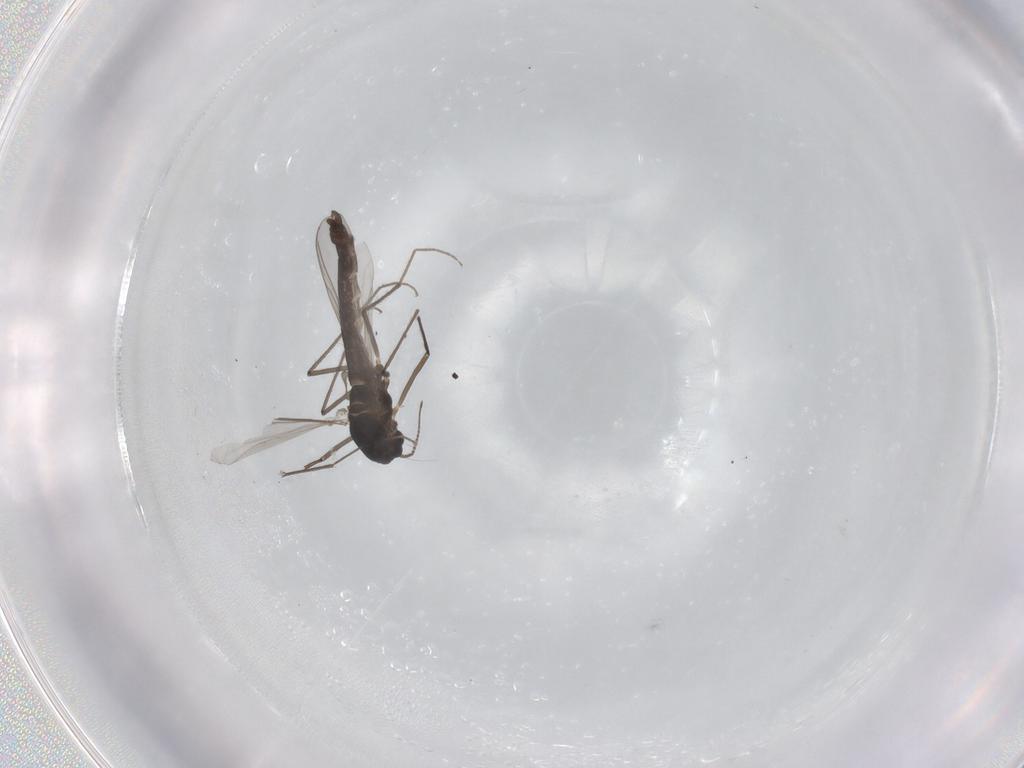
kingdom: Animalia
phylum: Arthropoda
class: Insecta
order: Diptera
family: Chironomidae
